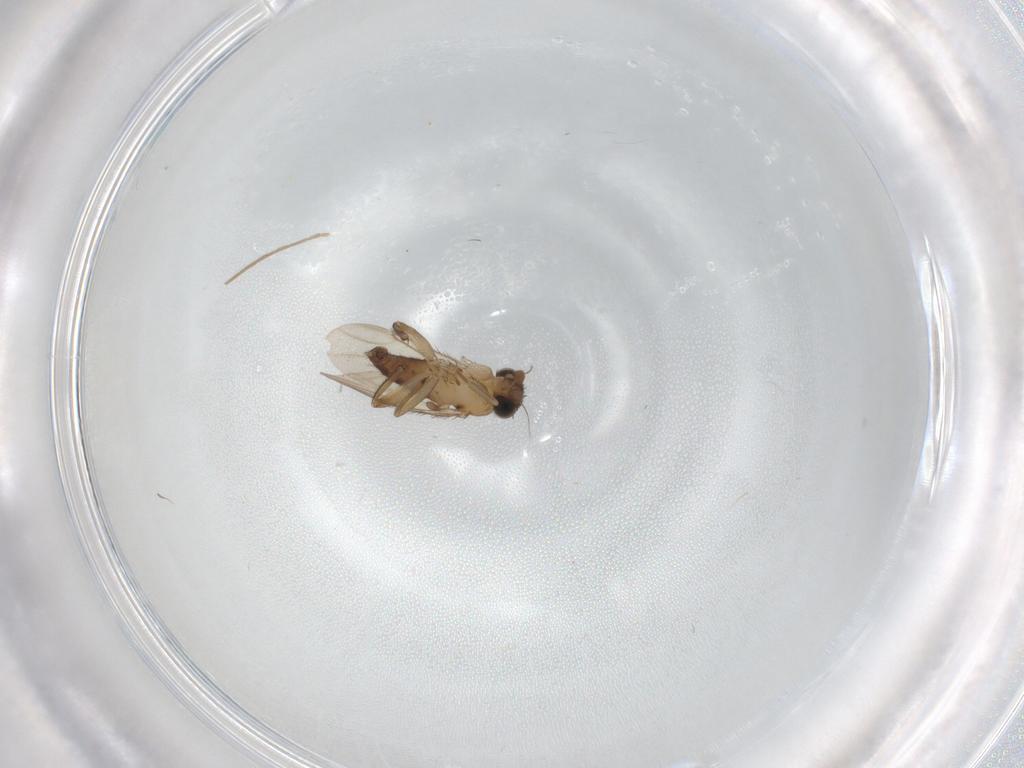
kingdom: Animalia
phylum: Arthropoda
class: Insecta
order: Diptera
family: Phoridae
